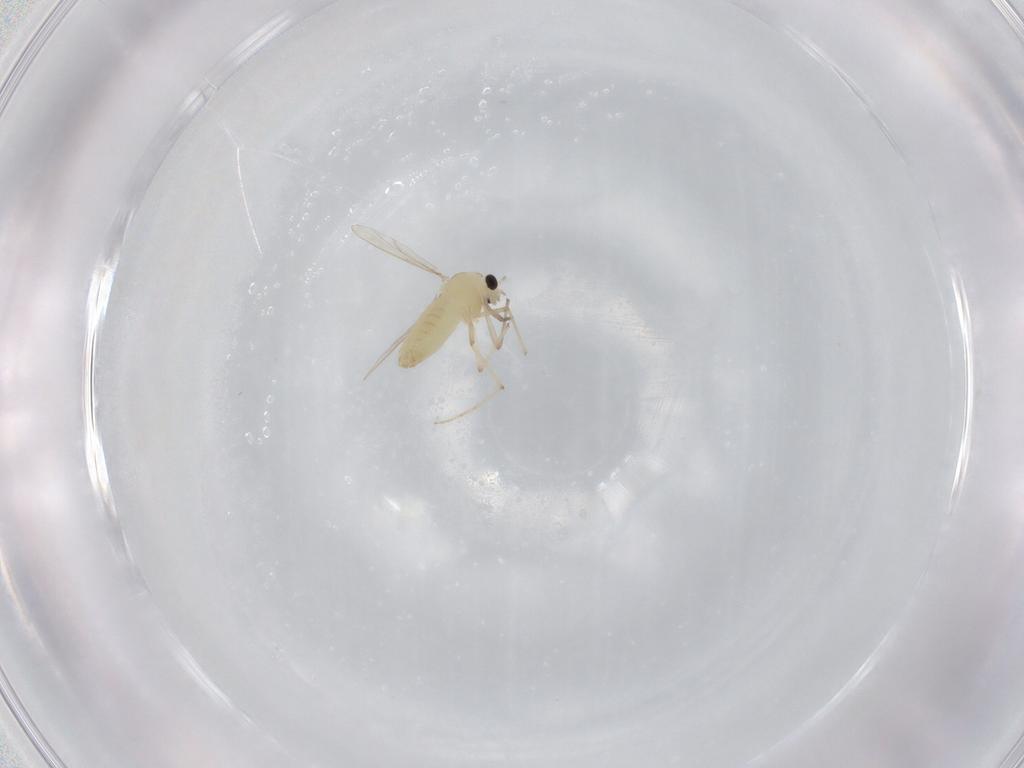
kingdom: Animalia
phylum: Arthropoda
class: Insecta
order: Diptera
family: Chironomidae
